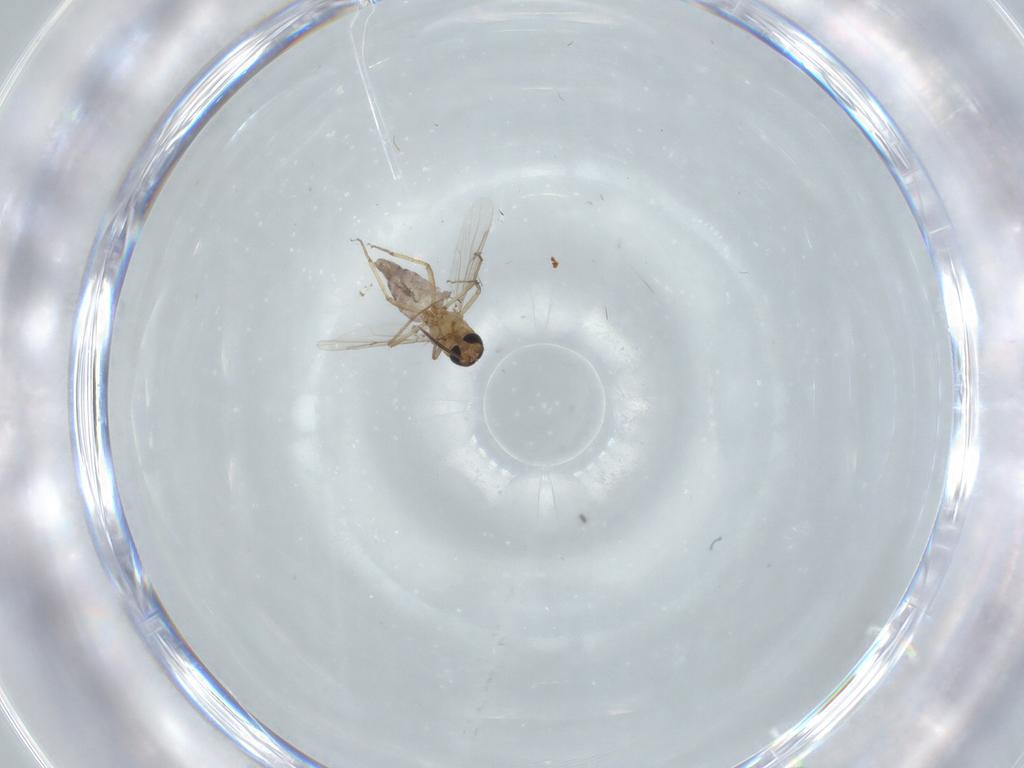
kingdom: Animalia
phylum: Arthropoda
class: Insecta
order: Diptera
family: Ceratopogonidae
